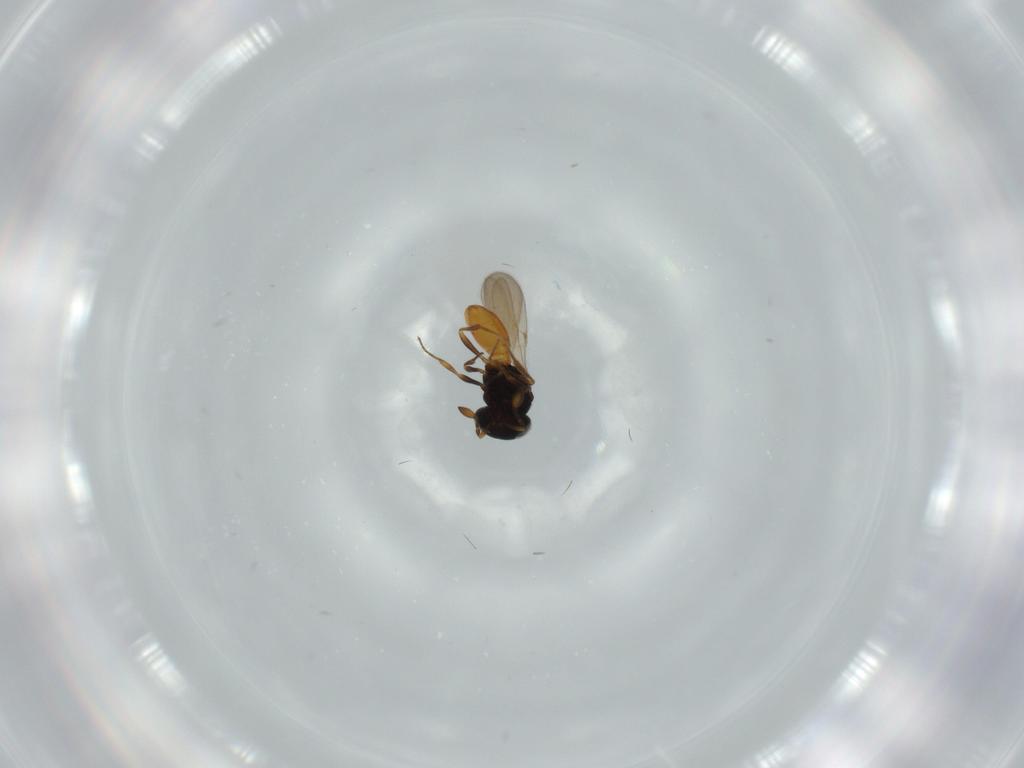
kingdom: Animalia
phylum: Arthropoda
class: Insecta
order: Hymenoptera
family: Scelionidae
